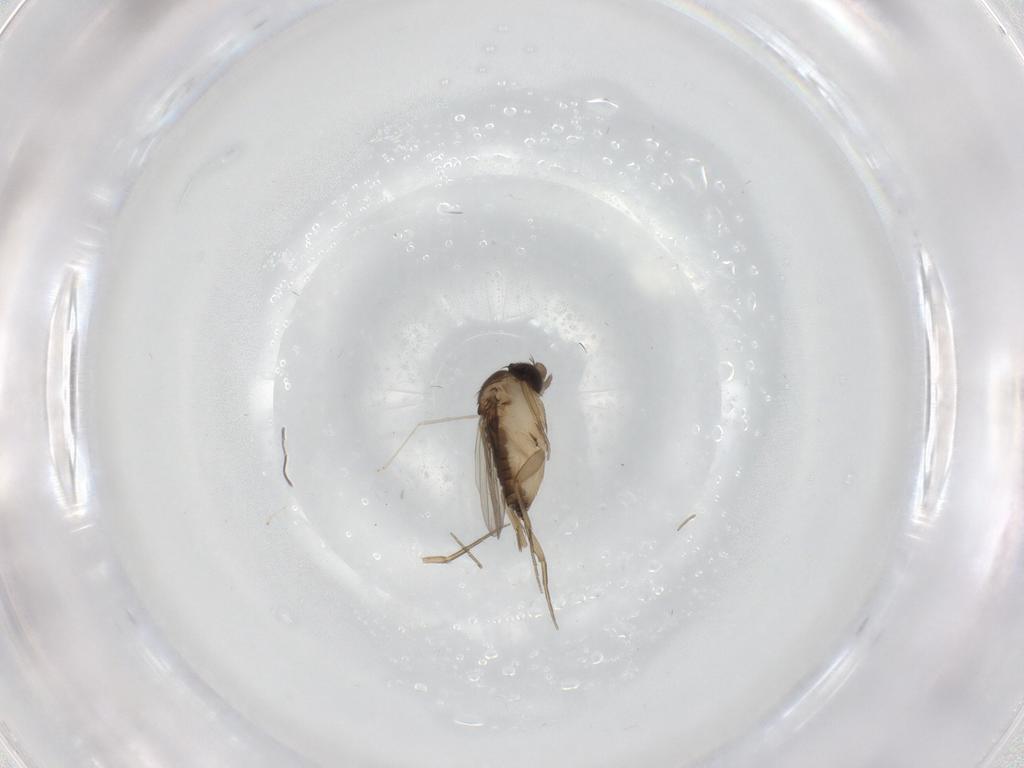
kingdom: Animalia
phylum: Arthropoda
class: Insecta
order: Diptera
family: Phoridae
